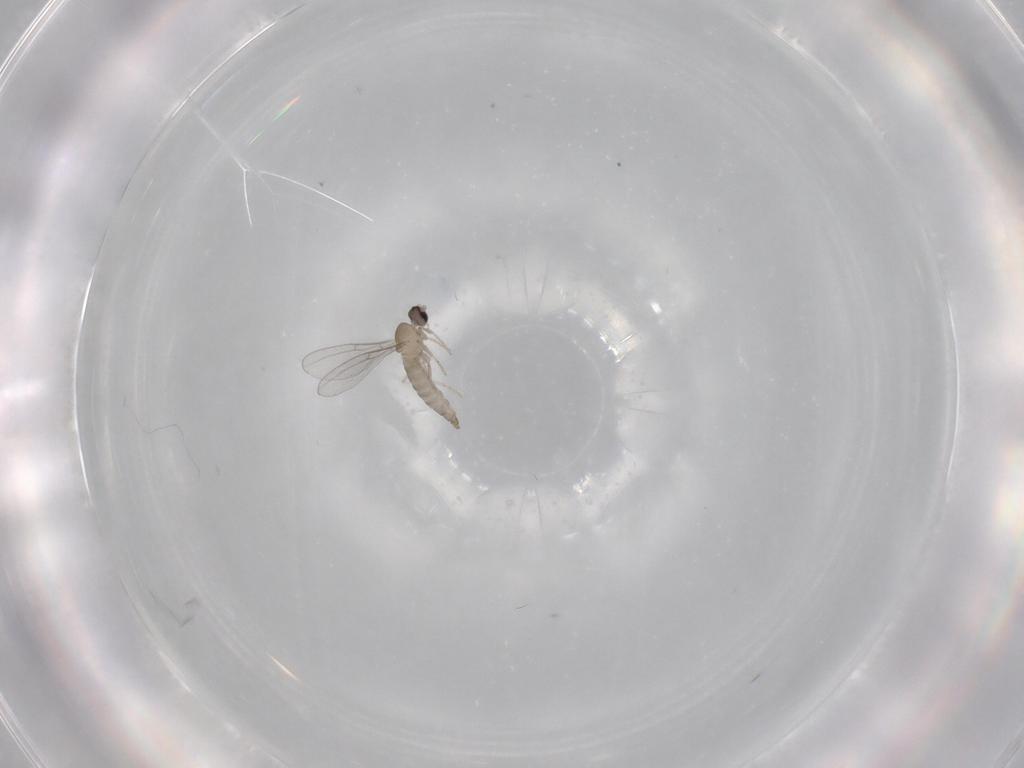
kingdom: Animalia
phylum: Arthropoda
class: Insecta
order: Diptera
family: Cecidomyiidae
